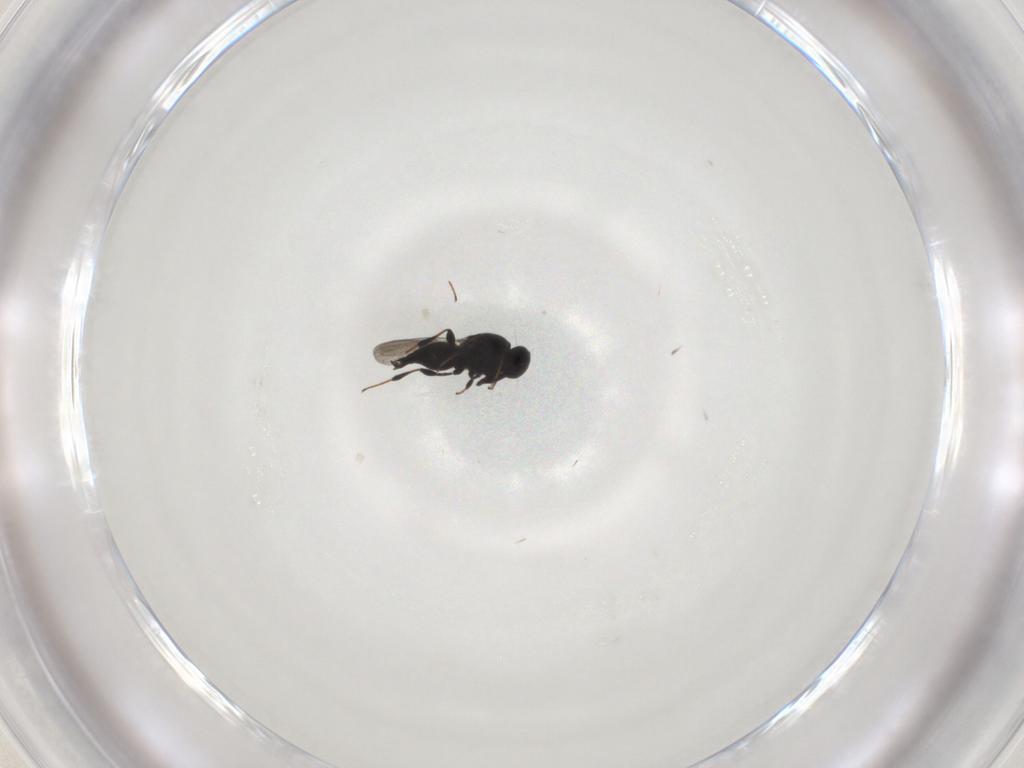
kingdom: Animalia
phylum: Arthropoda
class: Insecta
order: Hymenoptera
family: Platygastridae
